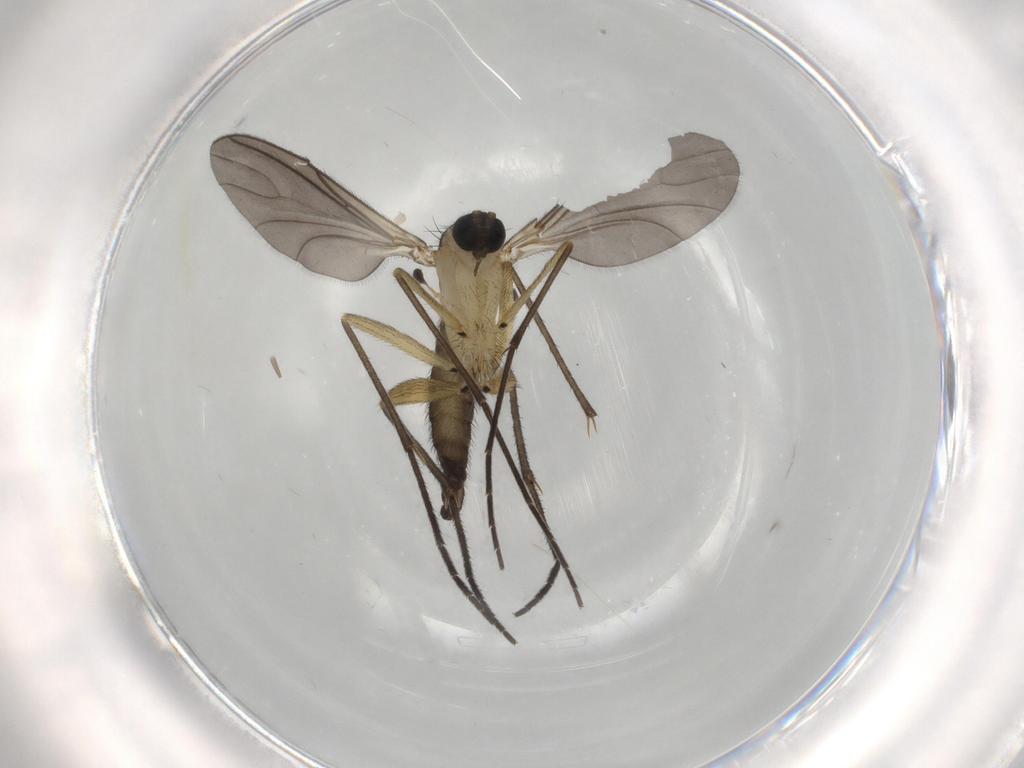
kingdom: Animalia
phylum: Arthropoda
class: Insecta
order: Diptera
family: Sciaridae
